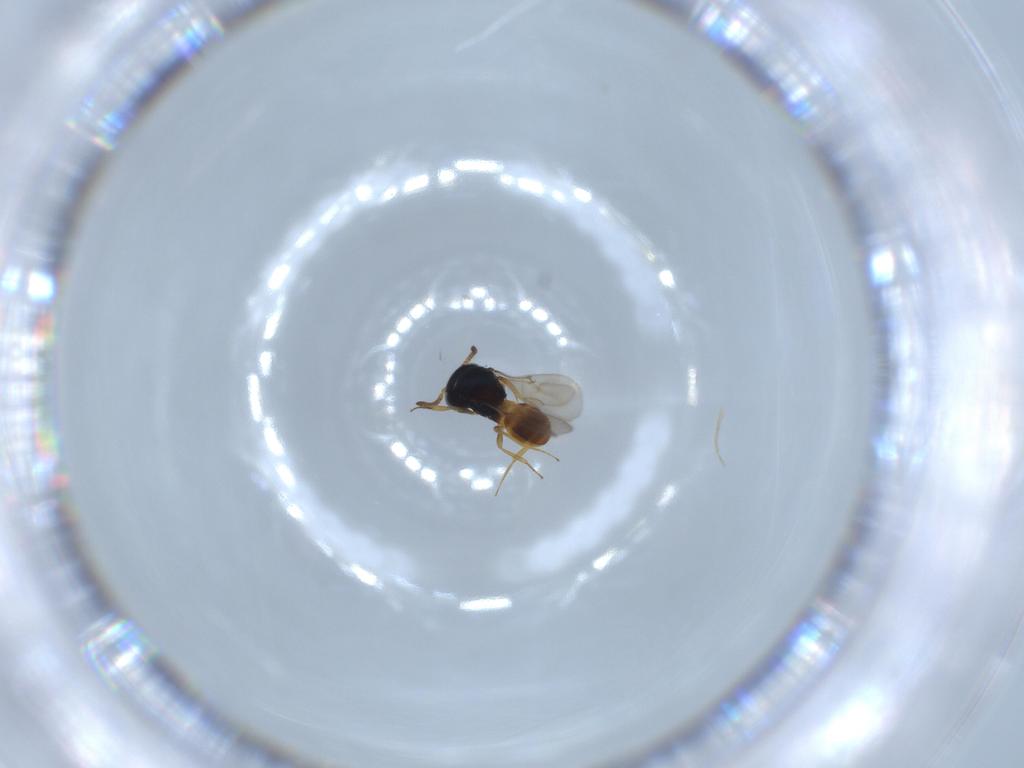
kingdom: Animalia
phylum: Arthropoda
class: Insecta
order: Hymenoptera
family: Scelionidae
